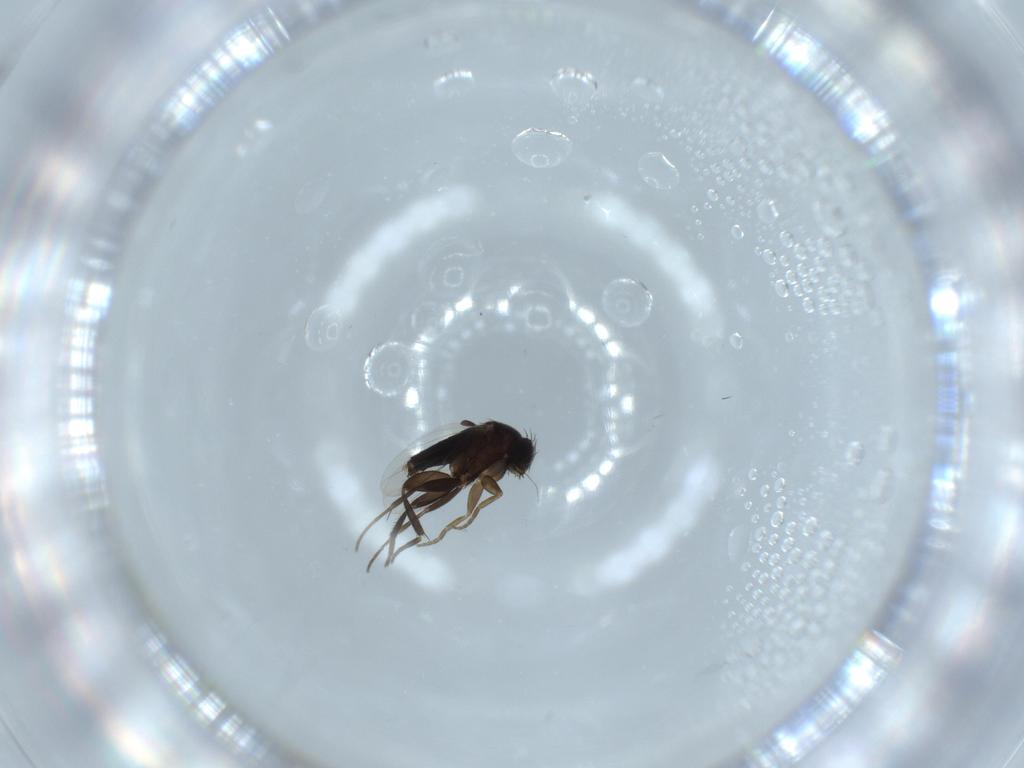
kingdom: Animalia
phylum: Arthropoda
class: Insecta
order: Diptera
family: Phoridae
